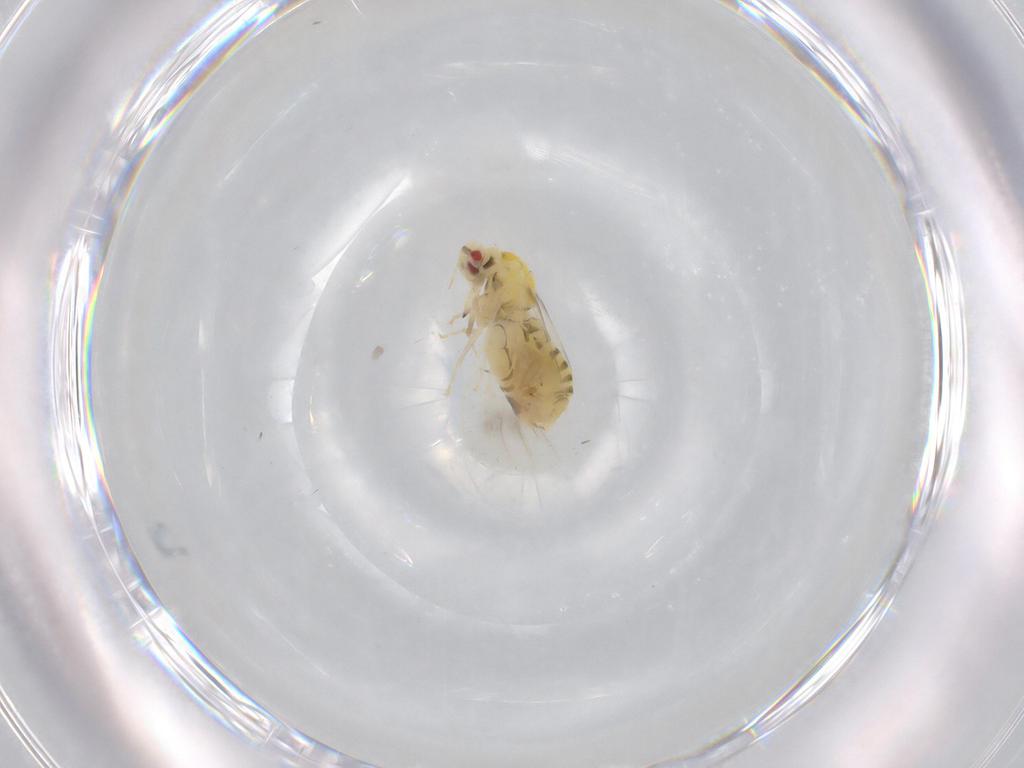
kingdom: Animalia
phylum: Arthropoda
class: Insecta
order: Hemiptera
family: Aleyrodidae
